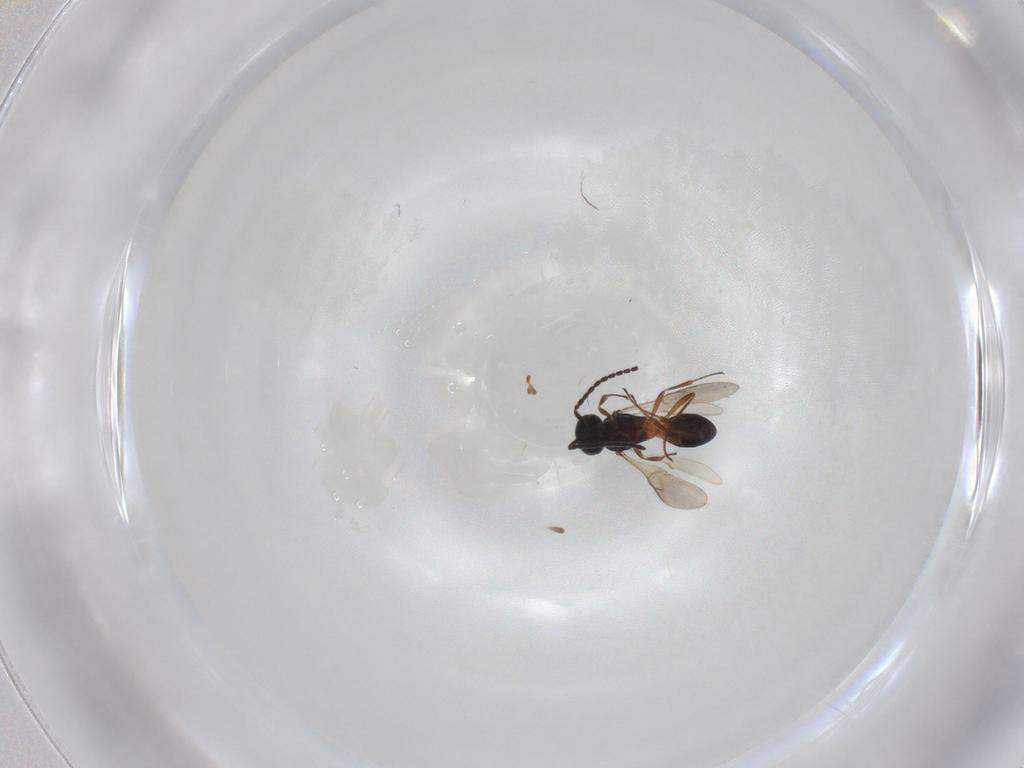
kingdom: Animalia
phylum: Arthropoda
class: Insecta
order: Hymenoptera
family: Scelionidae
